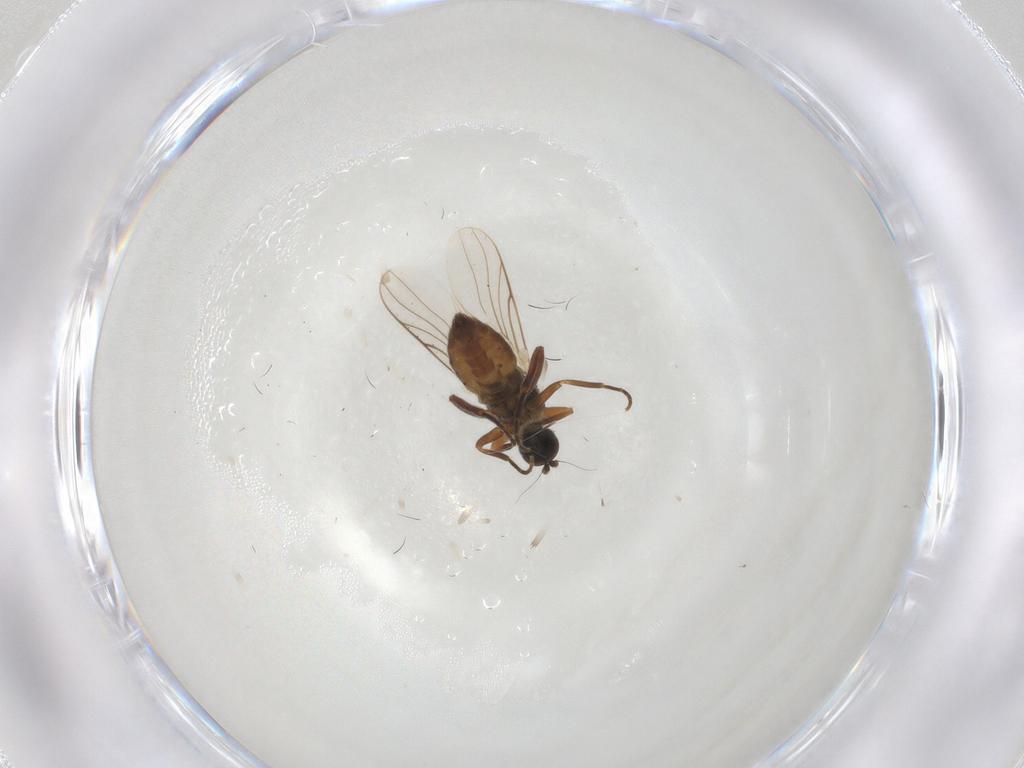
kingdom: Animalia
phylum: Arthropoda
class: Insecta
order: Diptera
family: Hybotidae
